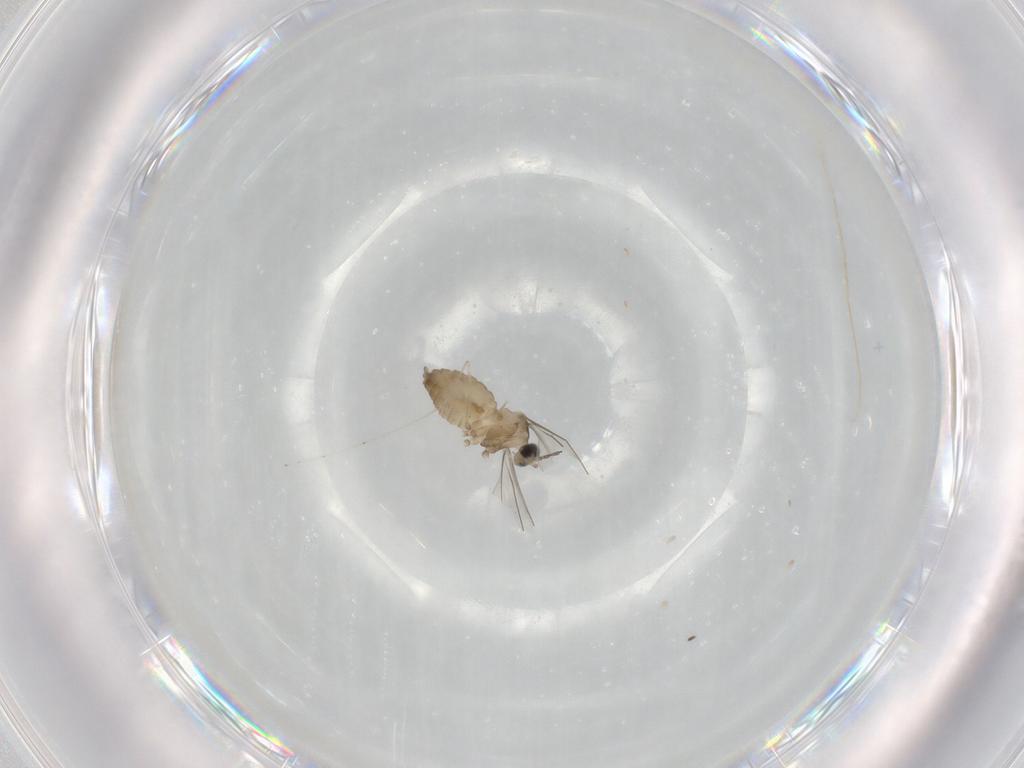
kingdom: Animalia
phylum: Arthropoda
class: Insecta
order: Diptera
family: Cecidomyiidae
